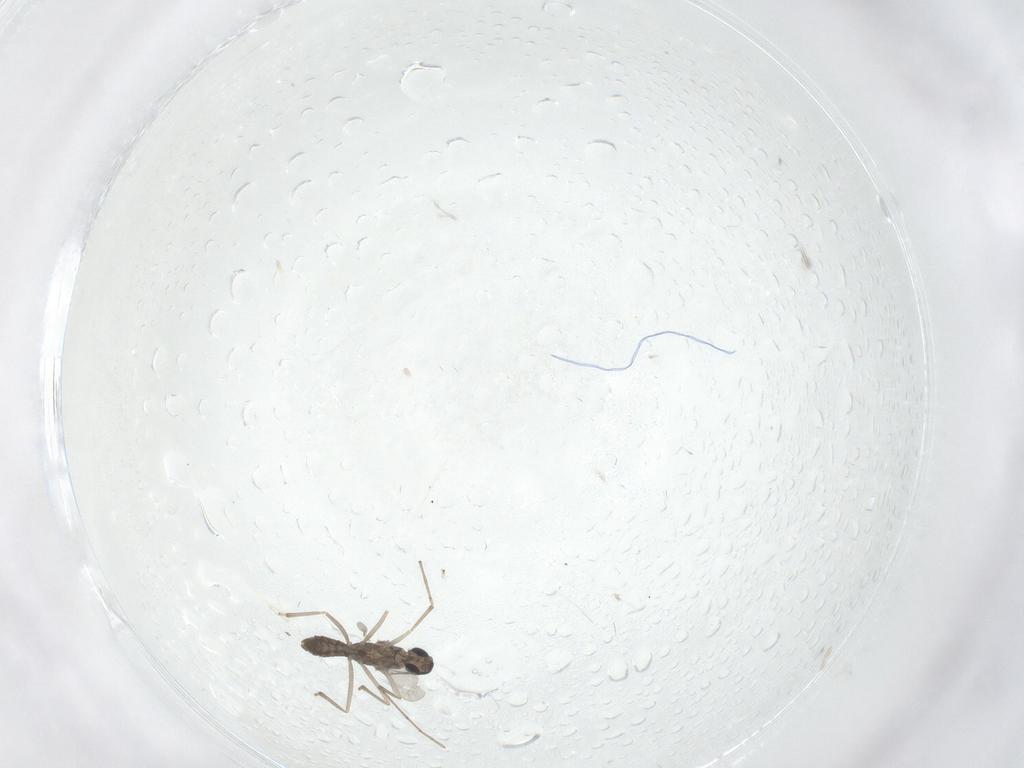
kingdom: Animalia
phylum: Arthropoda
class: Insecta
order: Diptera
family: Cecidomyiidae
